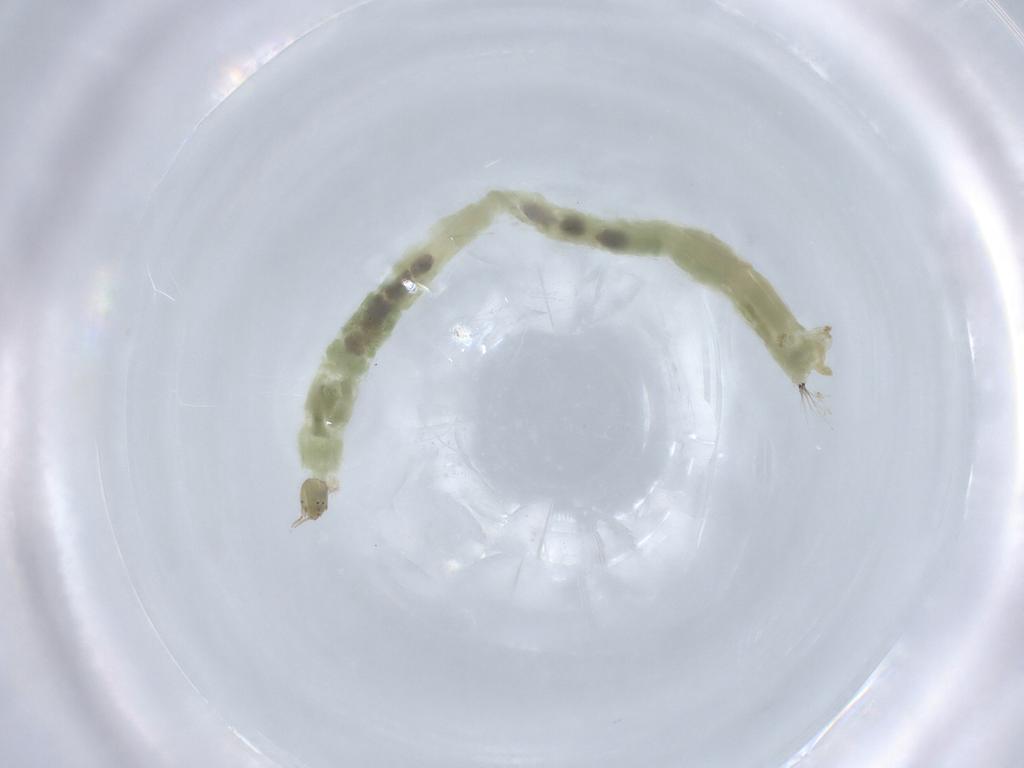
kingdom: Animalia
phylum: Arthropoda
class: Insecta
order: Diptera
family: Chironomidae
